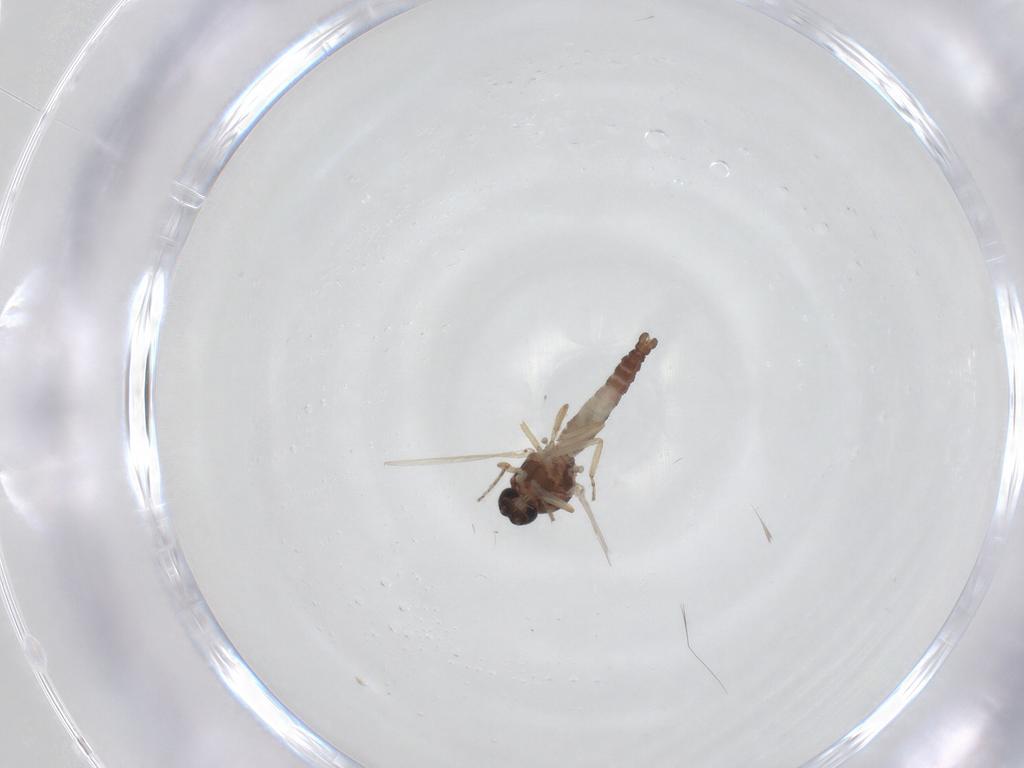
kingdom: Animalia
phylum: Arthropoda
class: Insecta
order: Diptera
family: Ceratopogonidae
